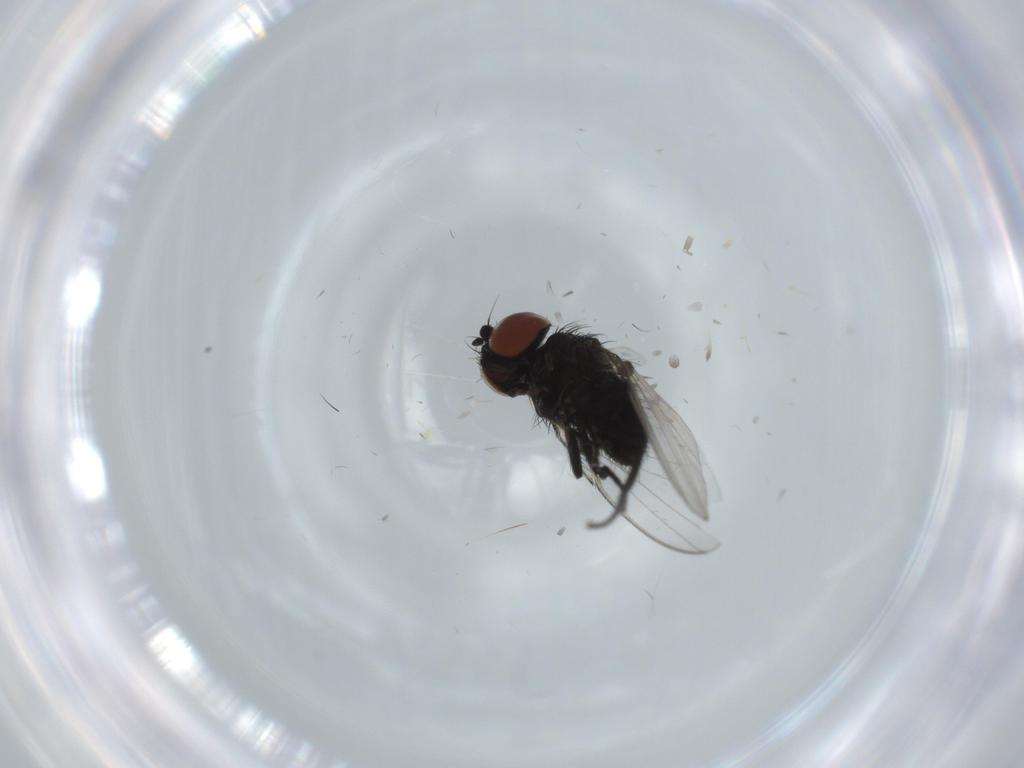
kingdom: Animalia
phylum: Arthropoda
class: Insecta
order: Diptera
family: Milichiidae
